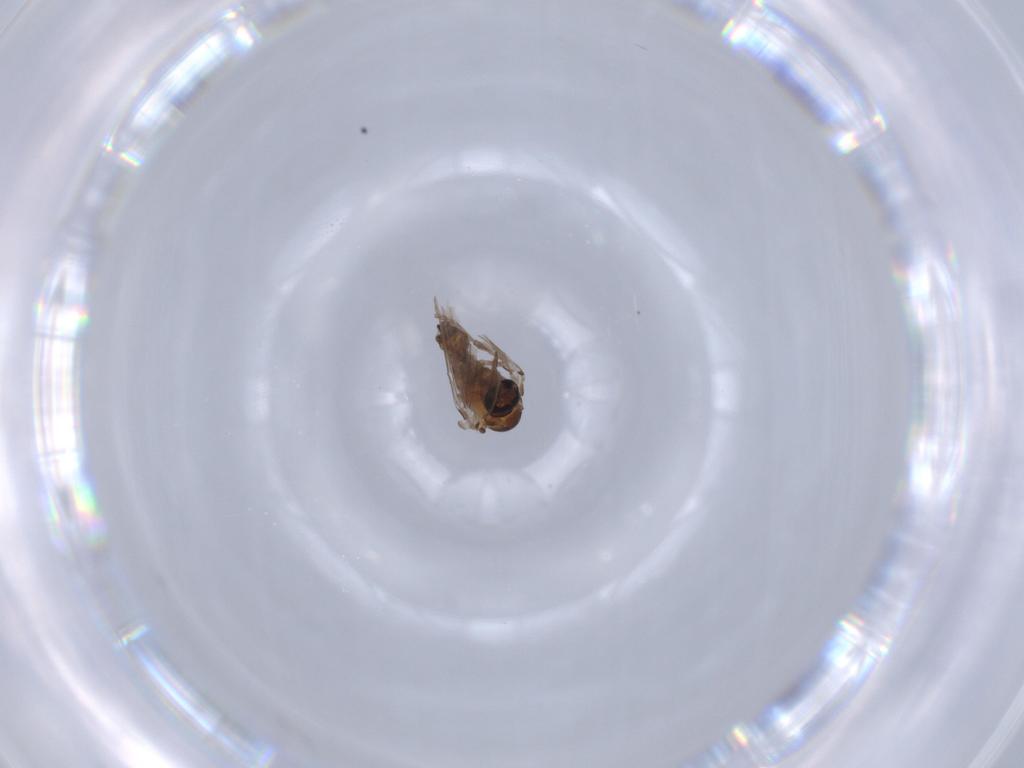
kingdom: Animalia
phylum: Arthropoda
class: Insecta
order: Diptera
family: Psychodidae
